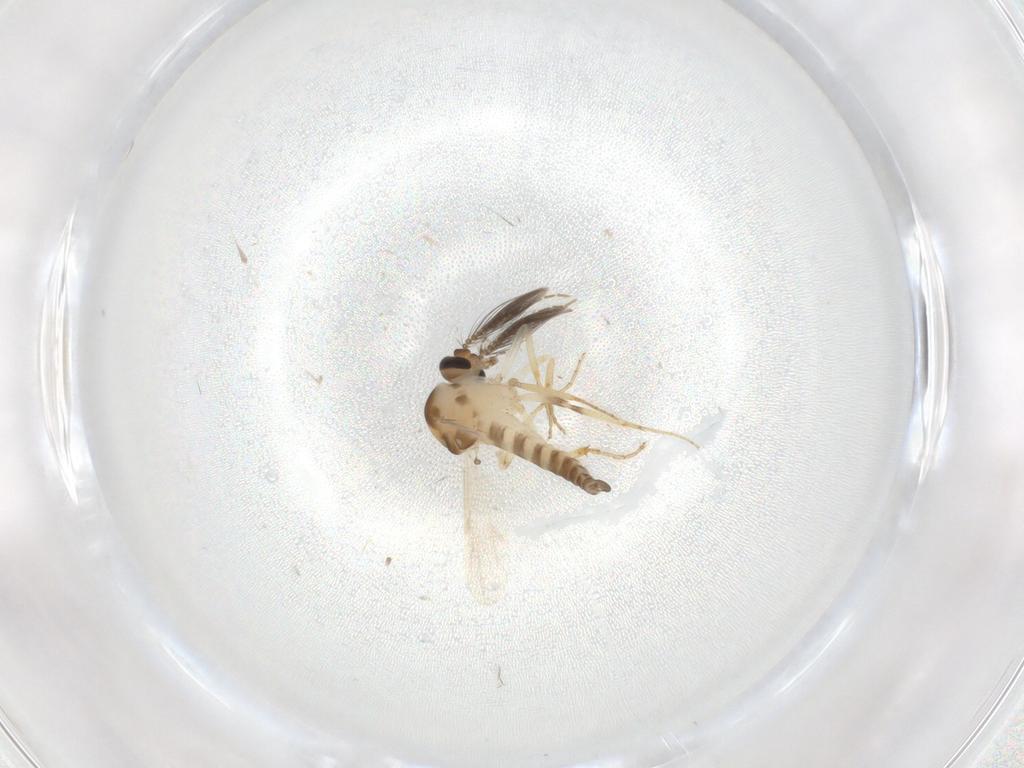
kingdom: Animalia
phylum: Arthropoda
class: Insecta
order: Diptera
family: Ceratopogonidae
